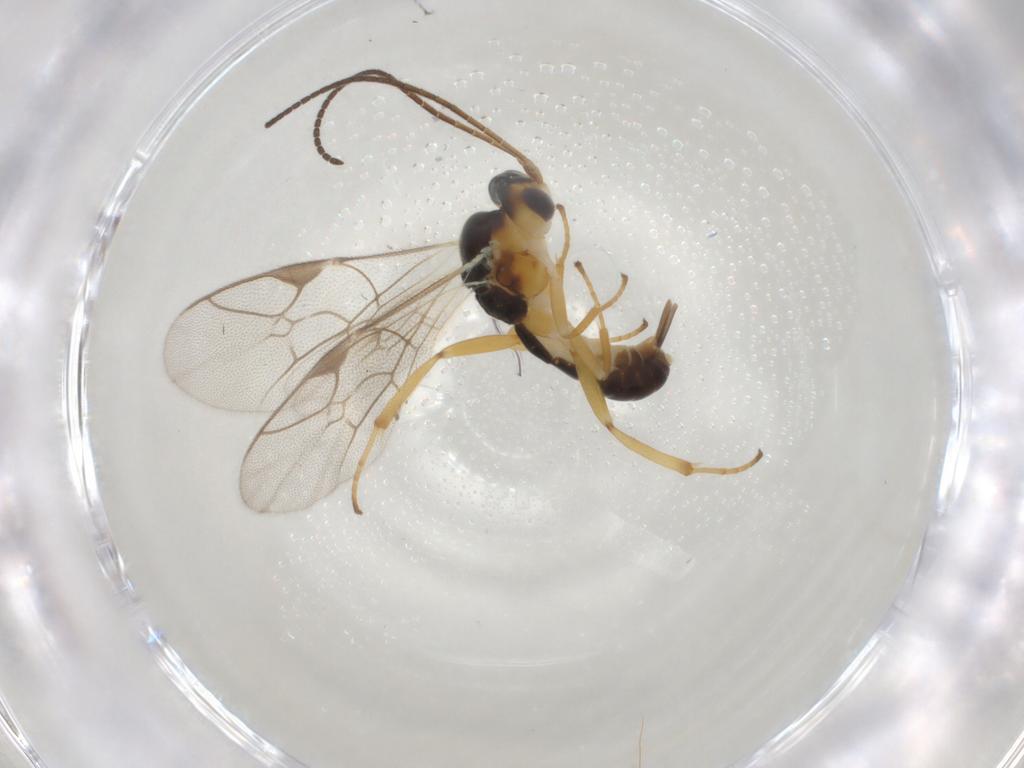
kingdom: Animalia
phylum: Arthropoda
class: Insecta
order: Hymenoptera
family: Ichneumonidae
